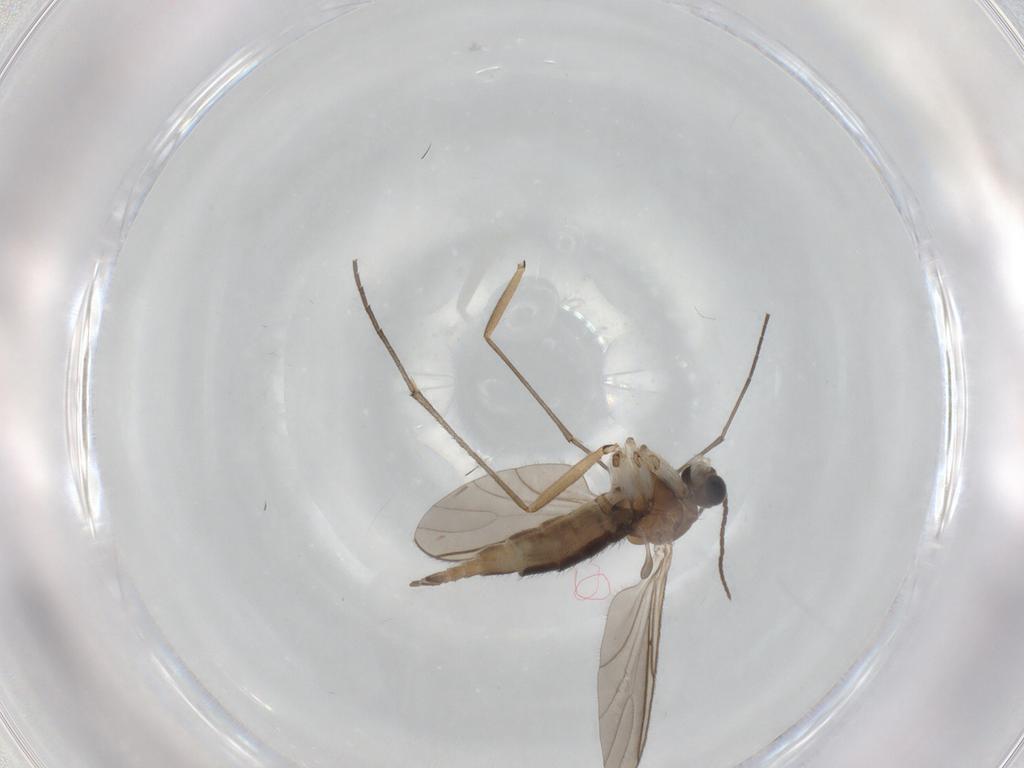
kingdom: Animalia
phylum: Arthropoda
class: Insecta
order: Diptera
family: Sciaridae
